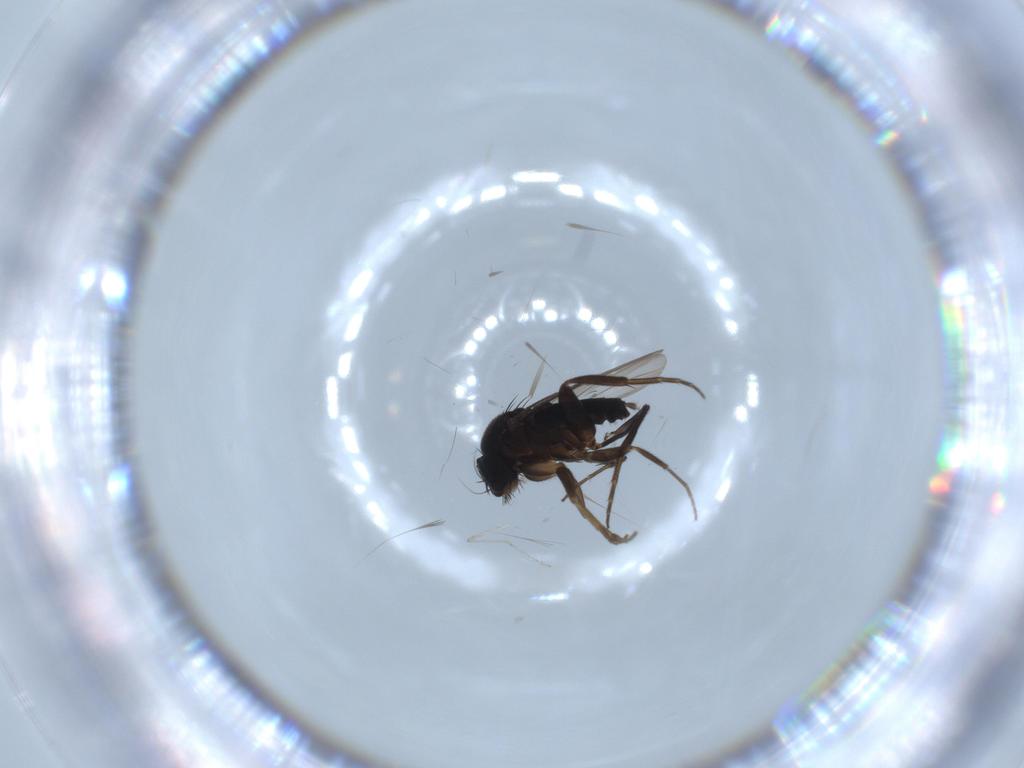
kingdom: Animalia
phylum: Arthropoda
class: Insecta
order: Diptera
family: Phoridae
